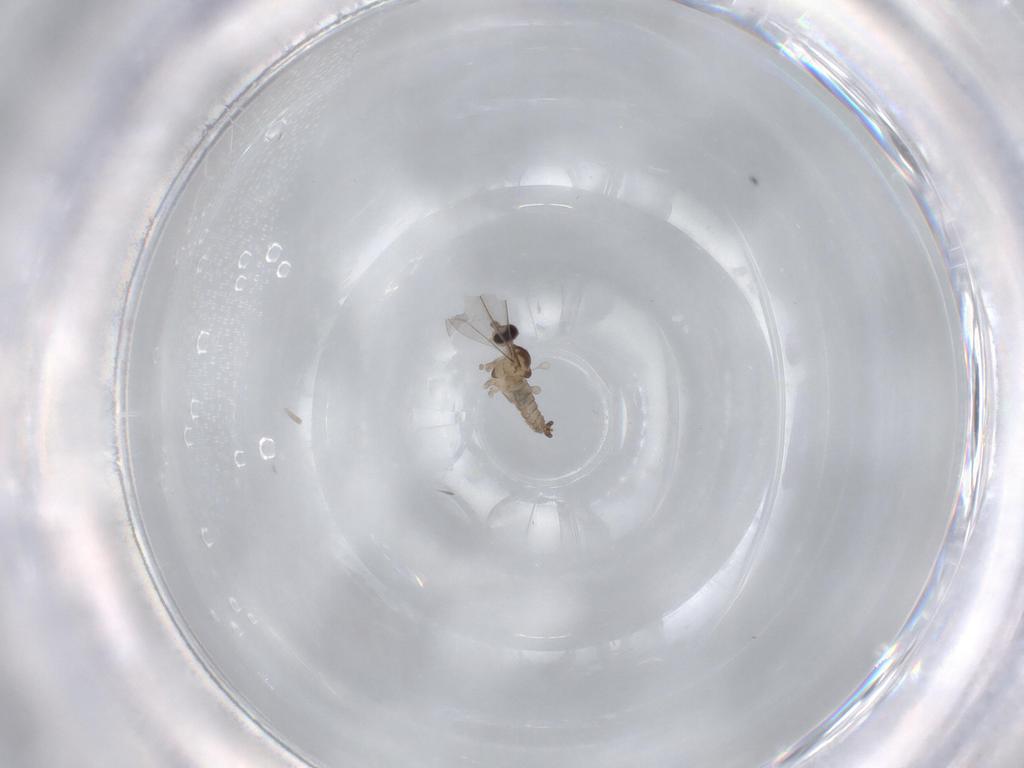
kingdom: Animalia
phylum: Arthropoda
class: Insecta
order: Diptera
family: Cecidomyiidae
